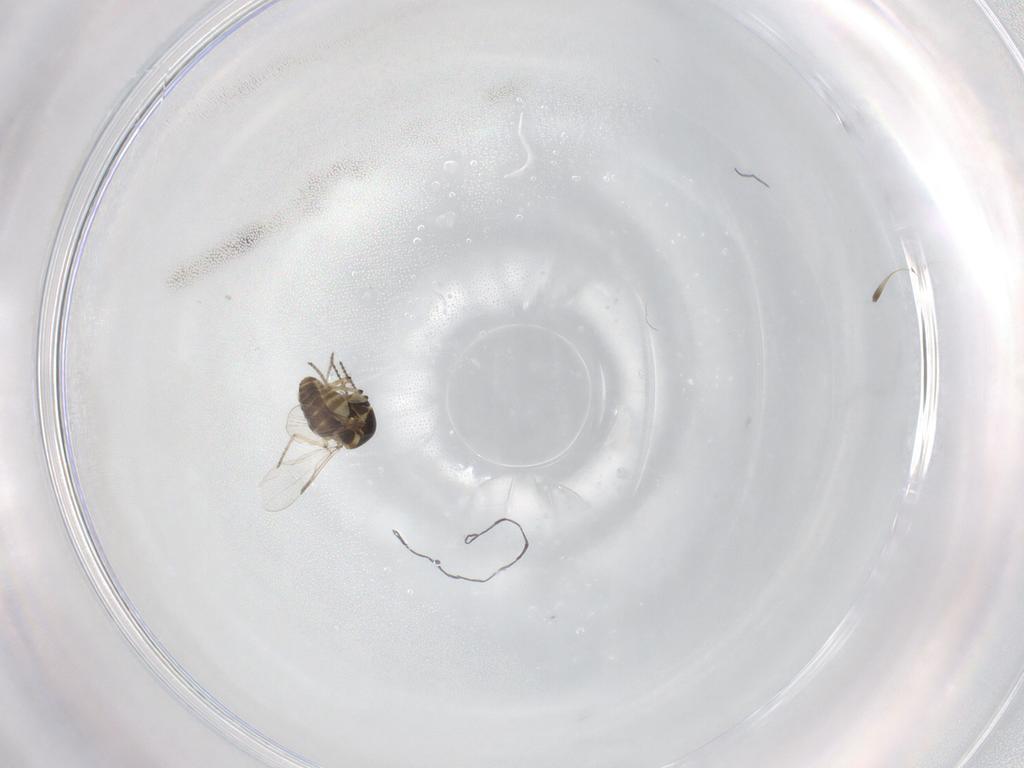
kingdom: Animalia
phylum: Arthropoda
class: Insecta
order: Diptera
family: Ceratopogonidae
